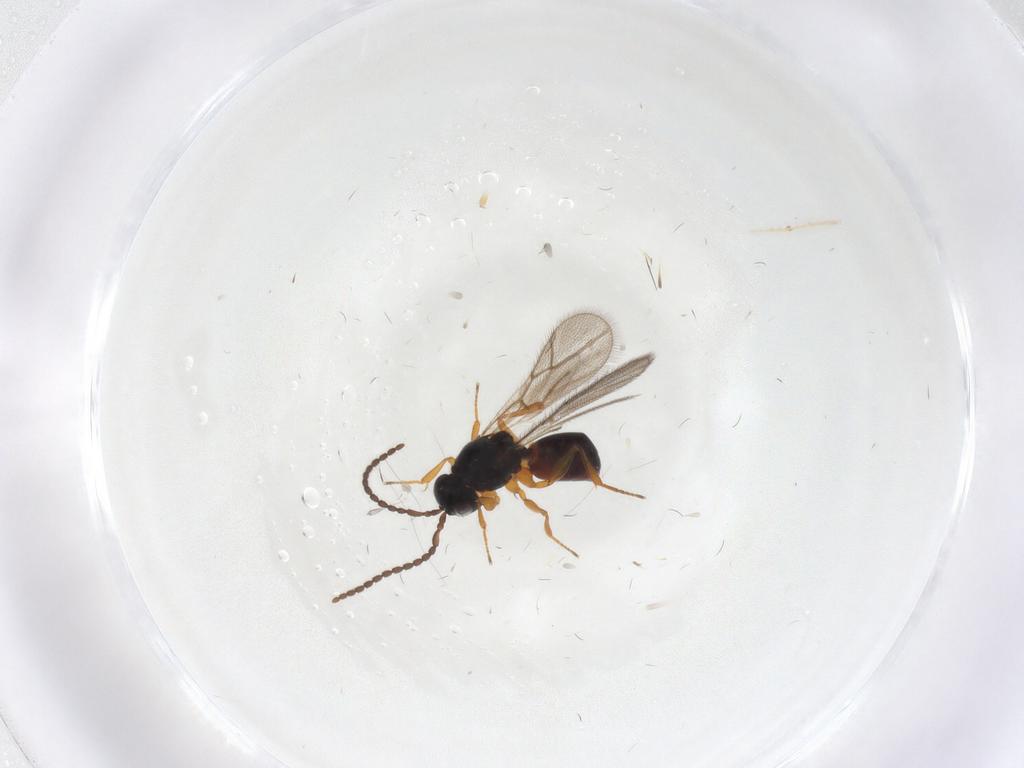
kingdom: Animalia
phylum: Arthropoda
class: Insecta
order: Hymenoptera
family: Figitidae
